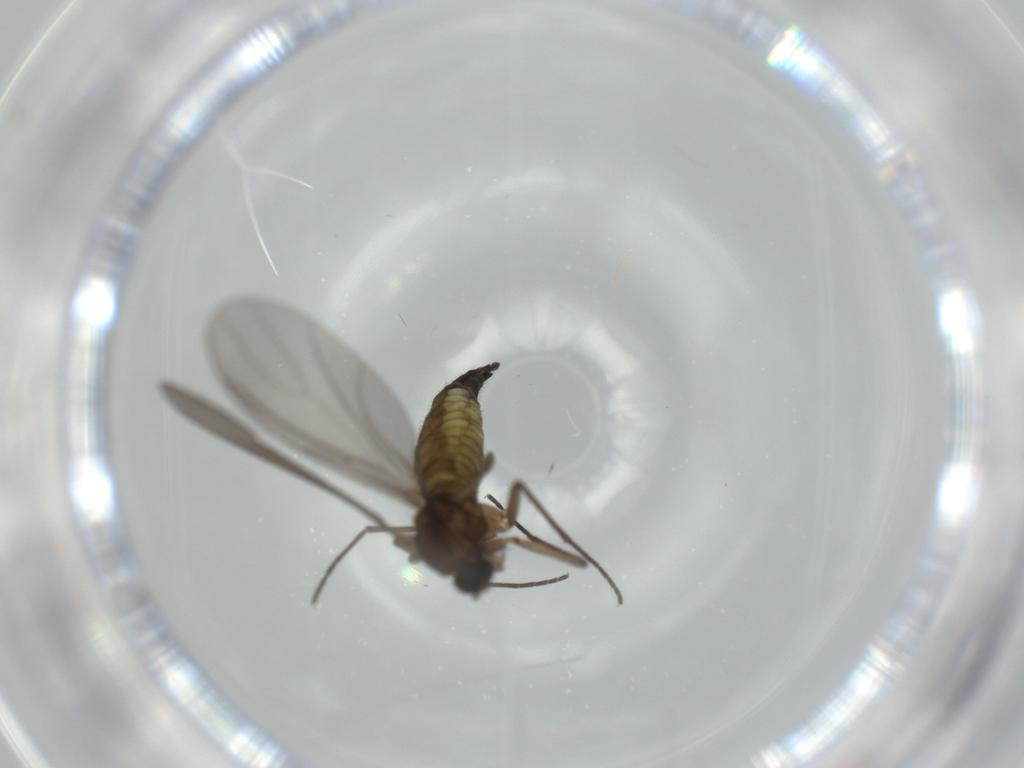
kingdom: Animalia
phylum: Arthropoda
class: Insecta
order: Diptera
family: Sciaridae
